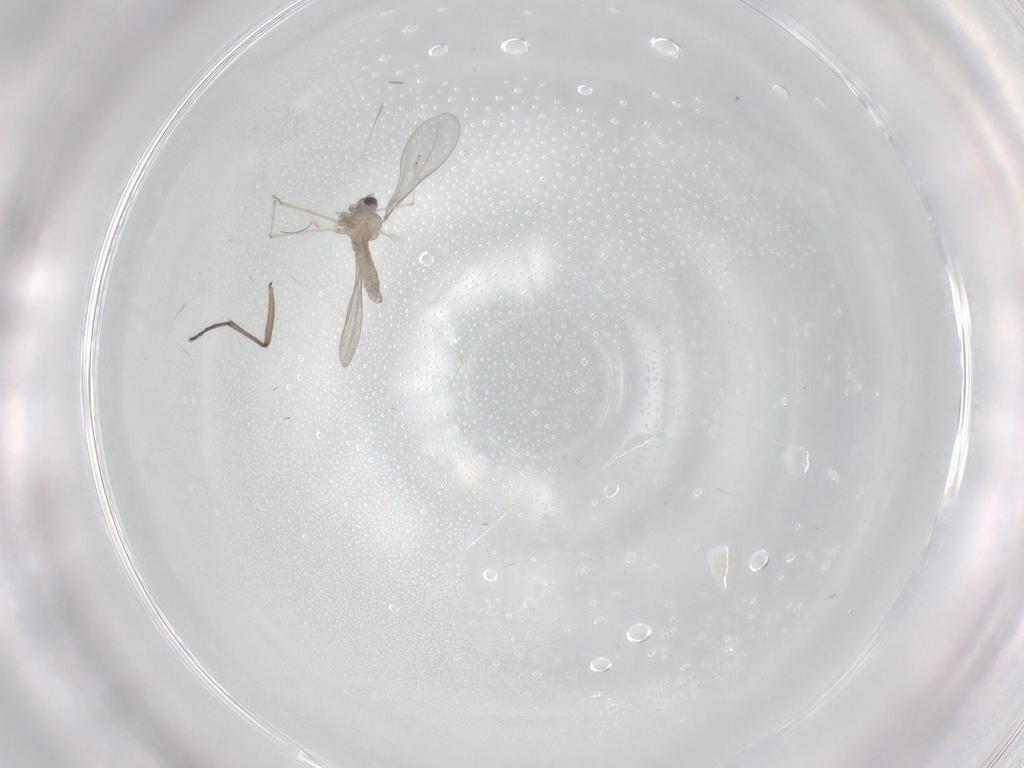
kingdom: Animalia
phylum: Arthropoda
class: Insecta
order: Diptera
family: Cecidomyiidae
